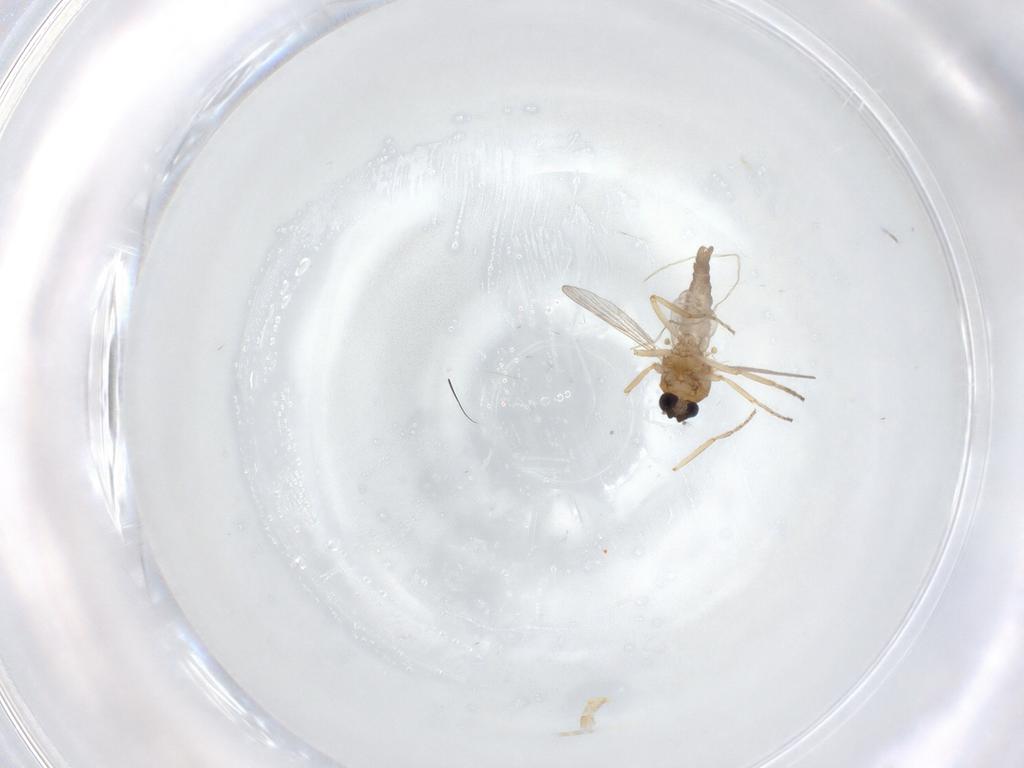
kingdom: Animalia
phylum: Arthropoda
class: Insecta
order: Diptera
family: Ceratopogonidae
